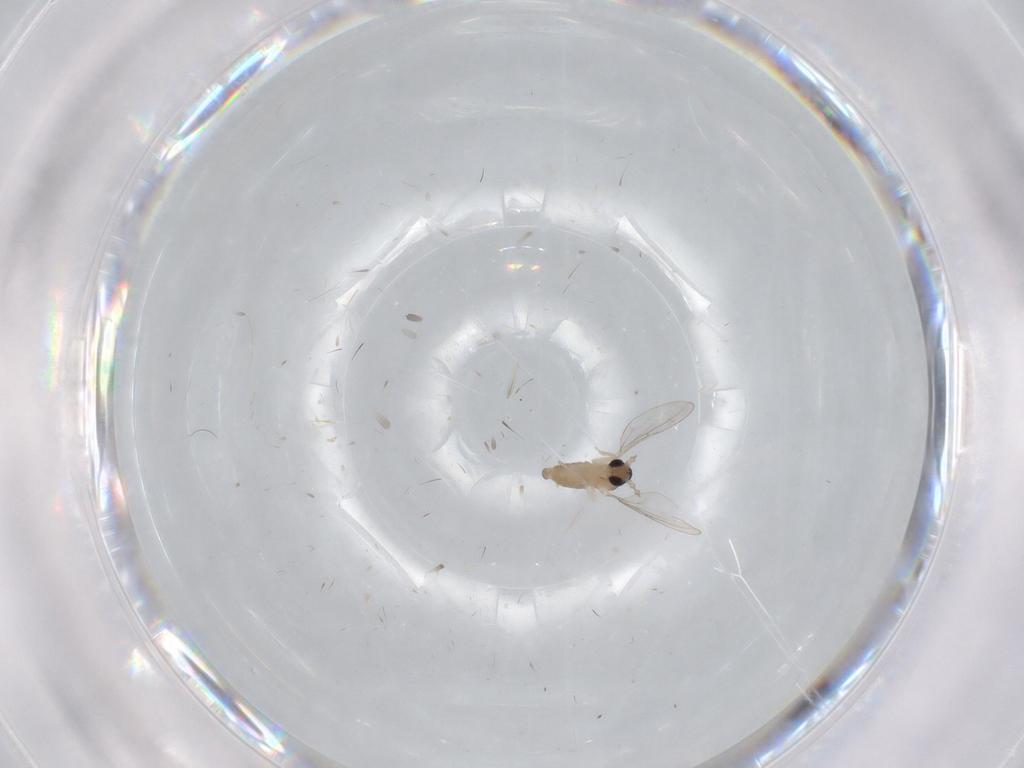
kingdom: Animalia
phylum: Arthropoda
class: Insecta
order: Diptera
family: Cecidomyiidae
